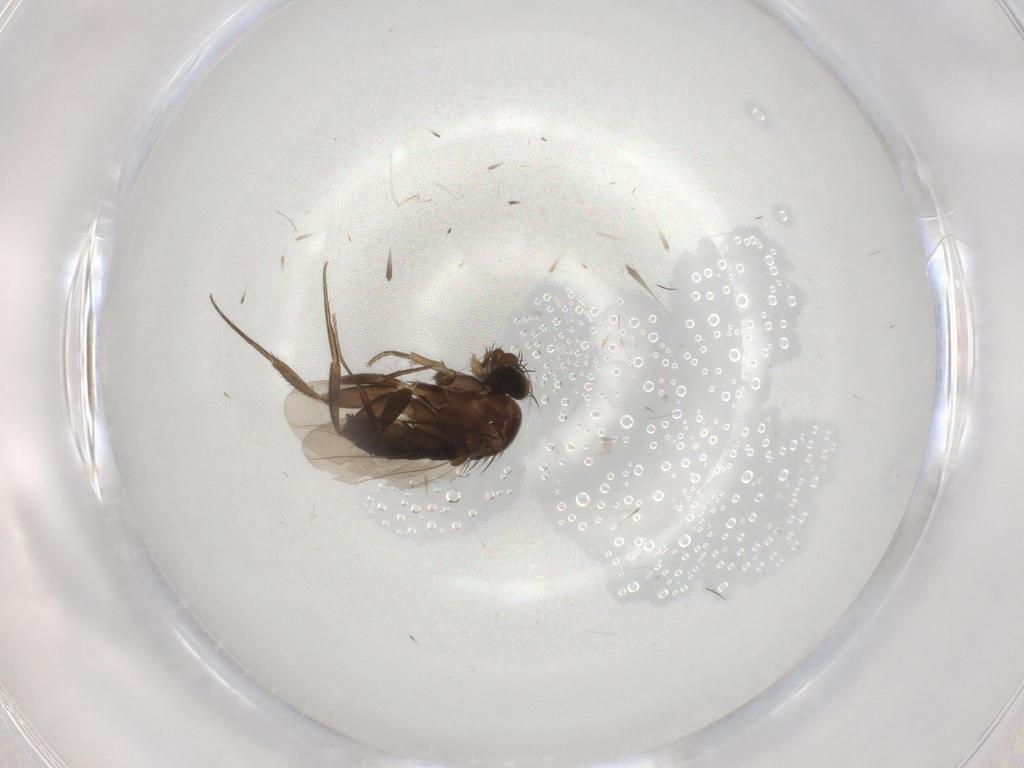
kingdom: Animalia
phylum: Arthropoda
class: Insecta
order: Diptera
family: Phoridae
